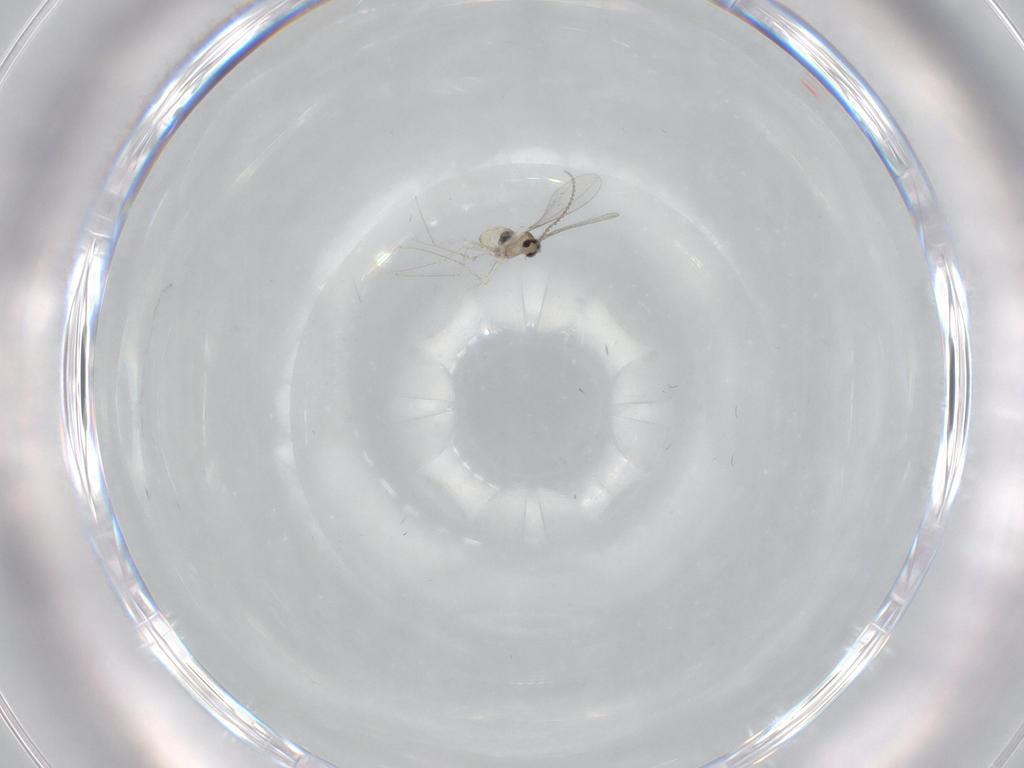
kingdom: Animalia
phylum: Arthropoda
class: Insecta
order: Diptera
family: Cecidomyiidae
